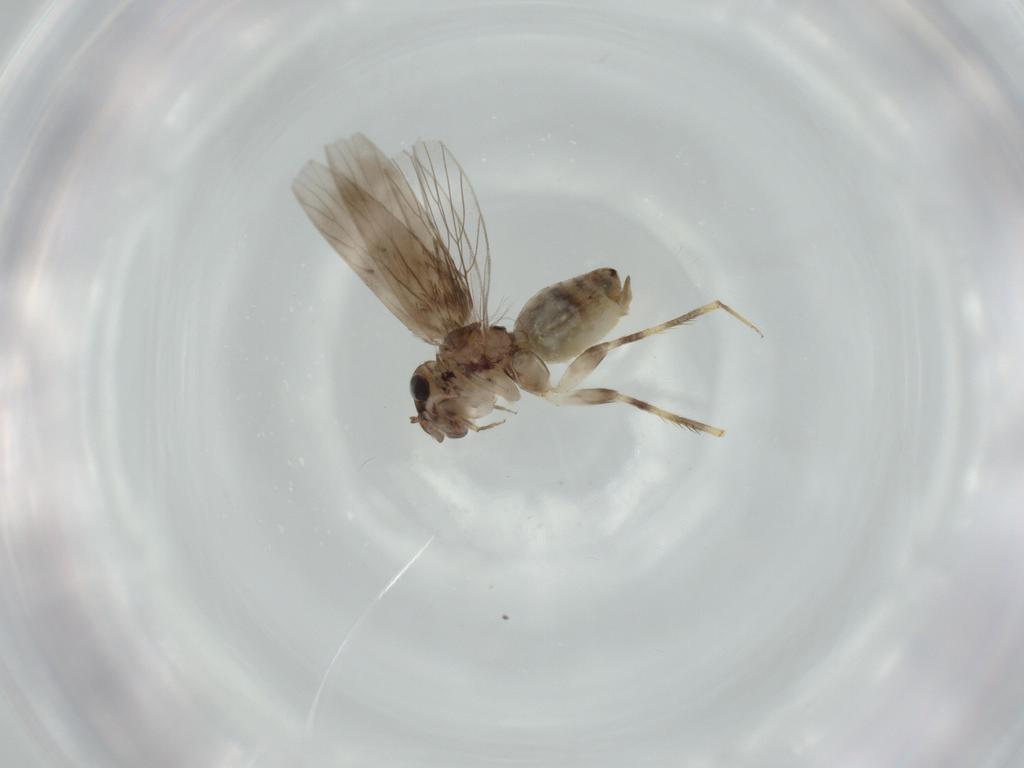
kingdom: Animalia
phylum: Arthropoda
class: Insecta
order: Psocodea
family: Lepidopsocidae
